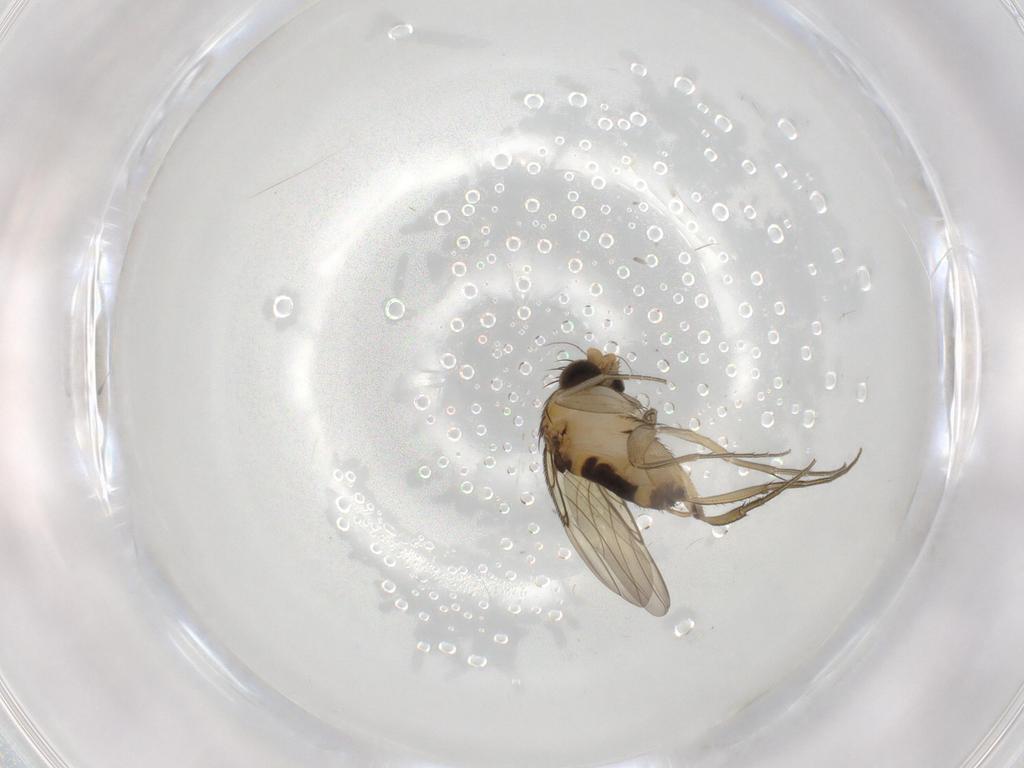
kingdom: Animalia
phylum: Arthropoda
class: Insecta
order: Diptera
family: Phoridae
